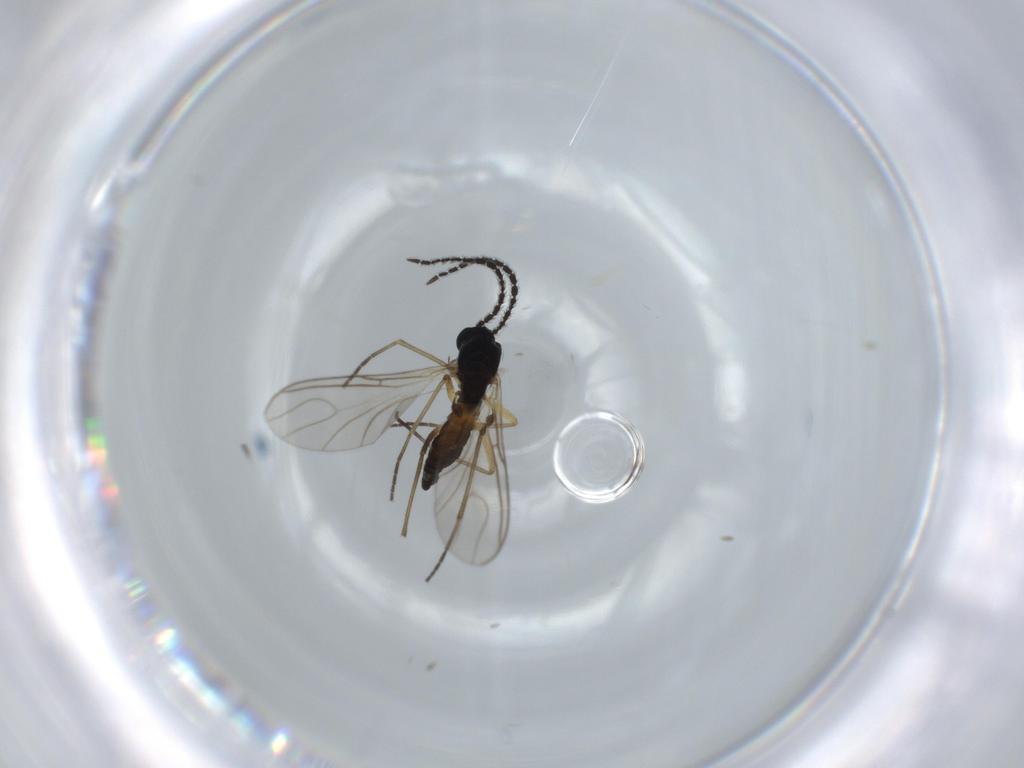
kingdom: Animalia
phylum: Arthropoda
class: Insecta
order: Diptera
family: Sciaridae
